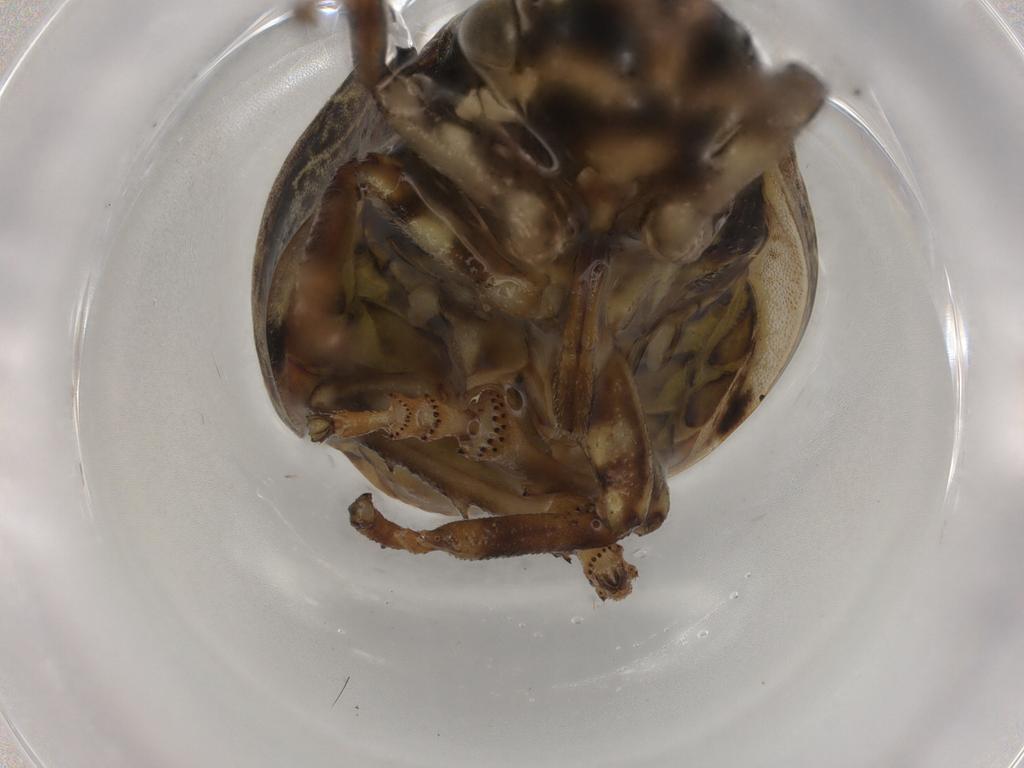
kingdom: Animalia
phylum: Arthropoda
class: Insecta
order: Hemiptera
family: Aphrophoridae
